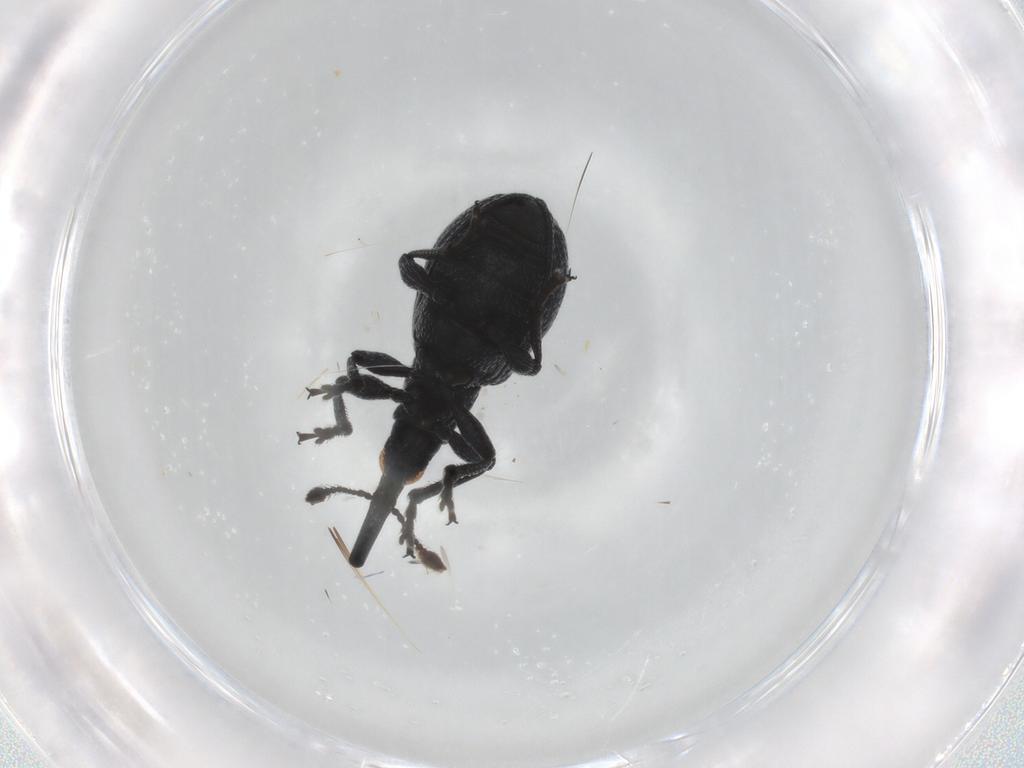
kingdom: Animalia
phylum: Arthropoda
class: Insecta
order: Coleoptera
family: Brentidae
